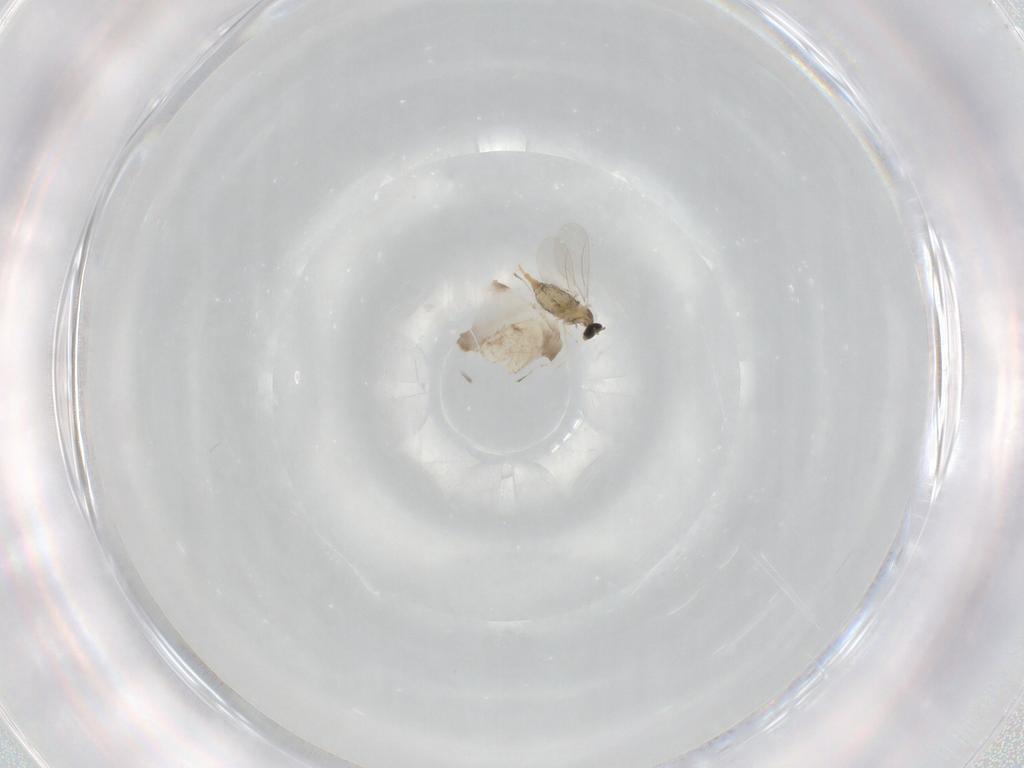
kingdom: Animalia
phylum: Arthropoda
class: Insecta
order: Diptera
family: Cecidomyiidae
